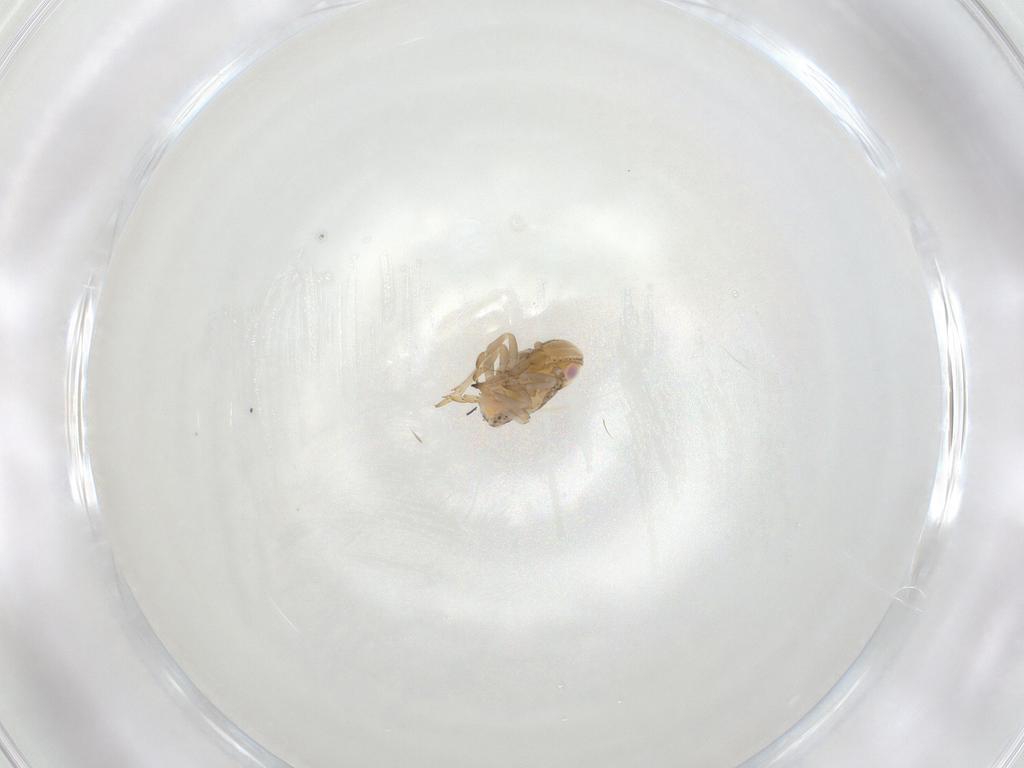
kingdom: Animalia
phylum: Arthropoda
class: Insecta
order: Hemiptera
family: Tropiduchidae
